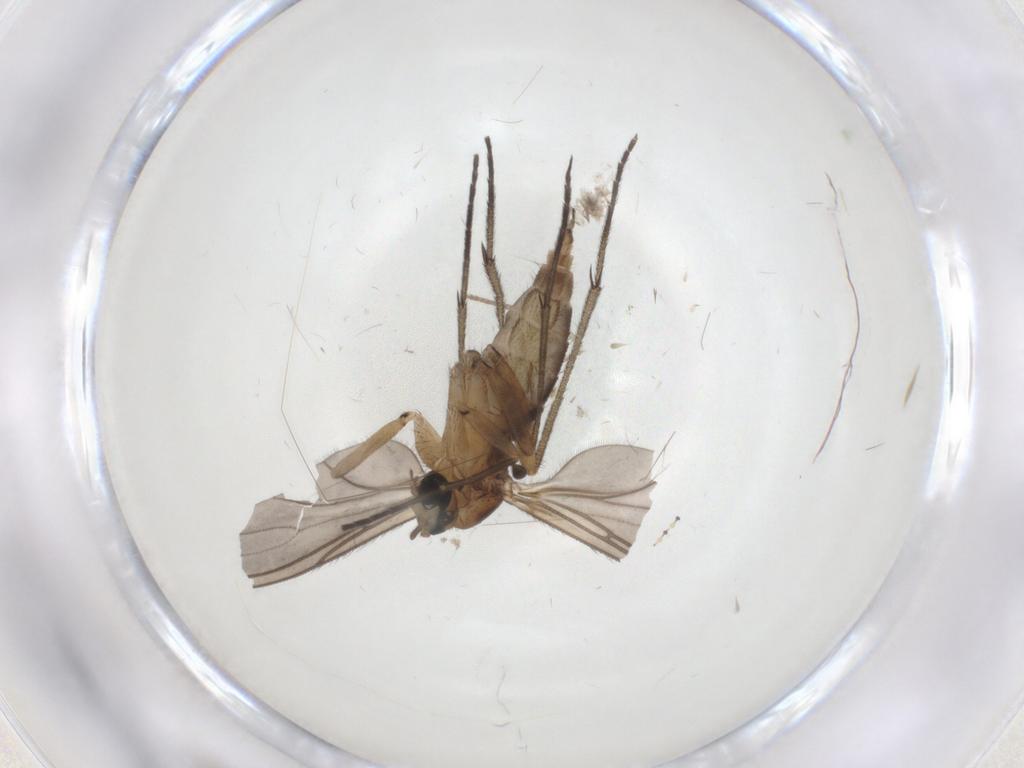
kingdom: Animalia
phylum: Arthropoda
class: Insecta
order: Diptera
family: Sciaridae
